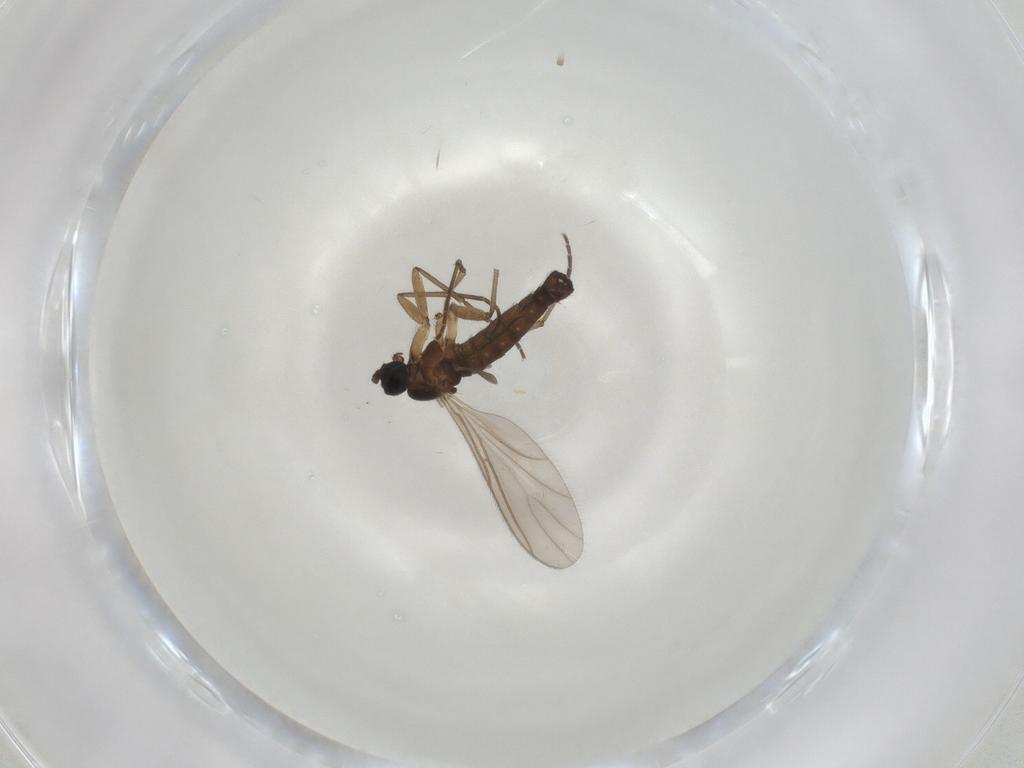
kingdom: Animalia
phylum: Arthropoda
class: Insecta
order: Diptera
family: Sciaridae
